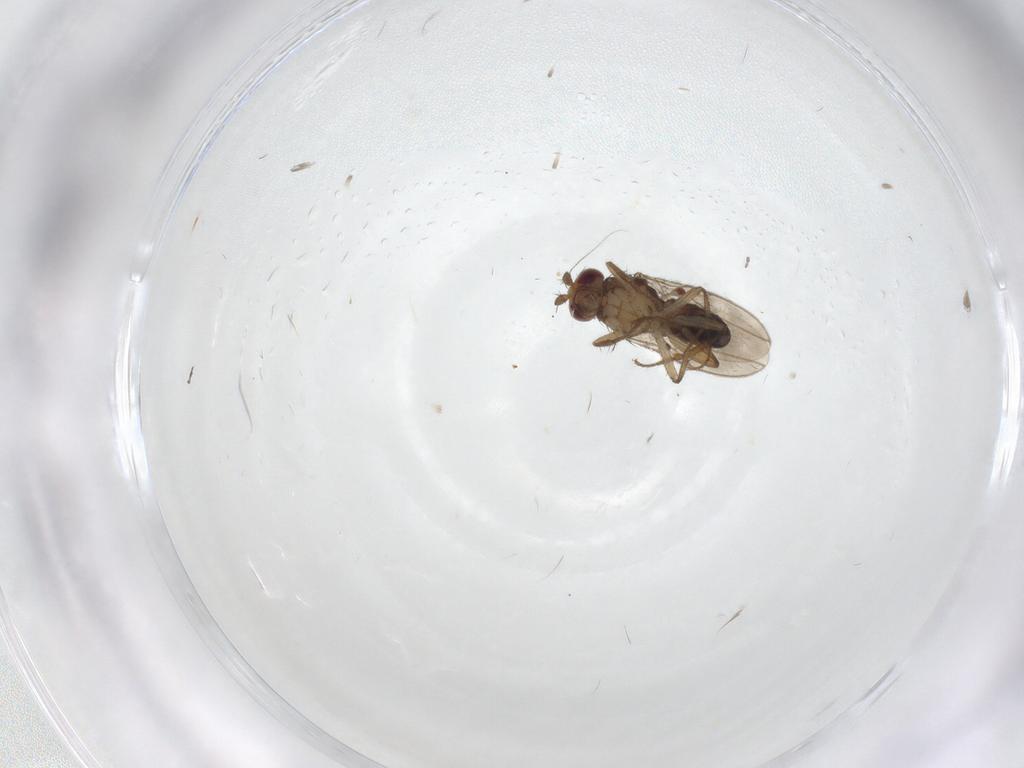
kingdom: Animalia
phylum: Arthropoda
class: Insecta
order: Diptera
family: Sphaeroceridae
